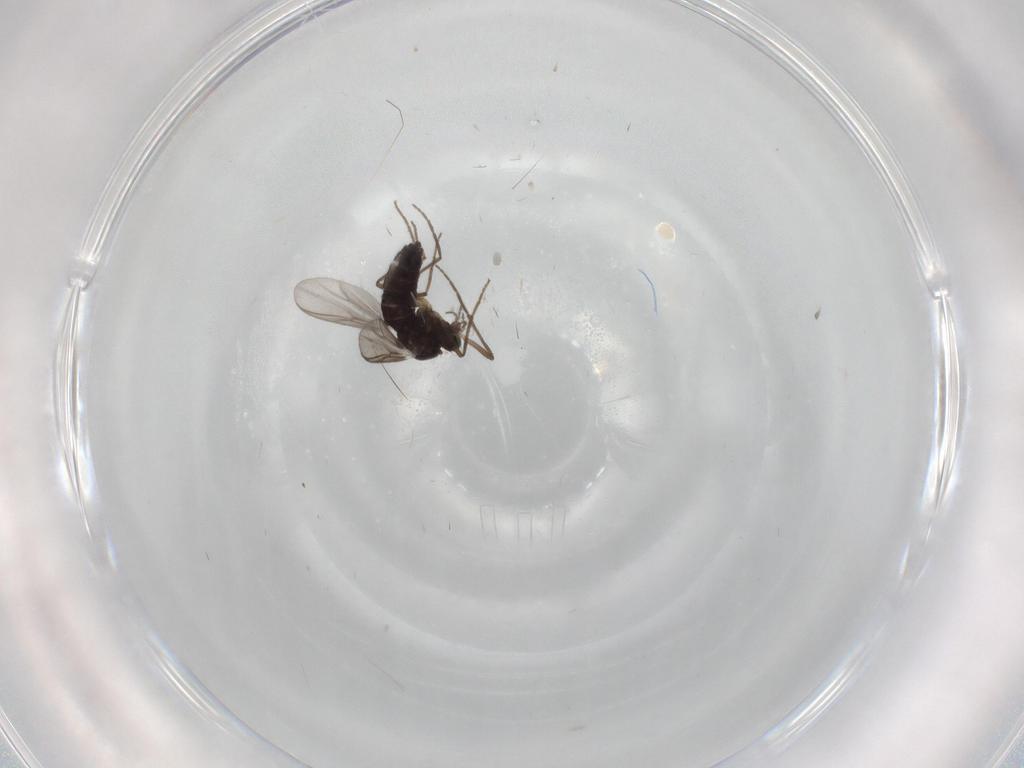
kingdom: Animalia
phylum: Arthropoda
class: Insecta
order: Diptera
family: Chironomidae
